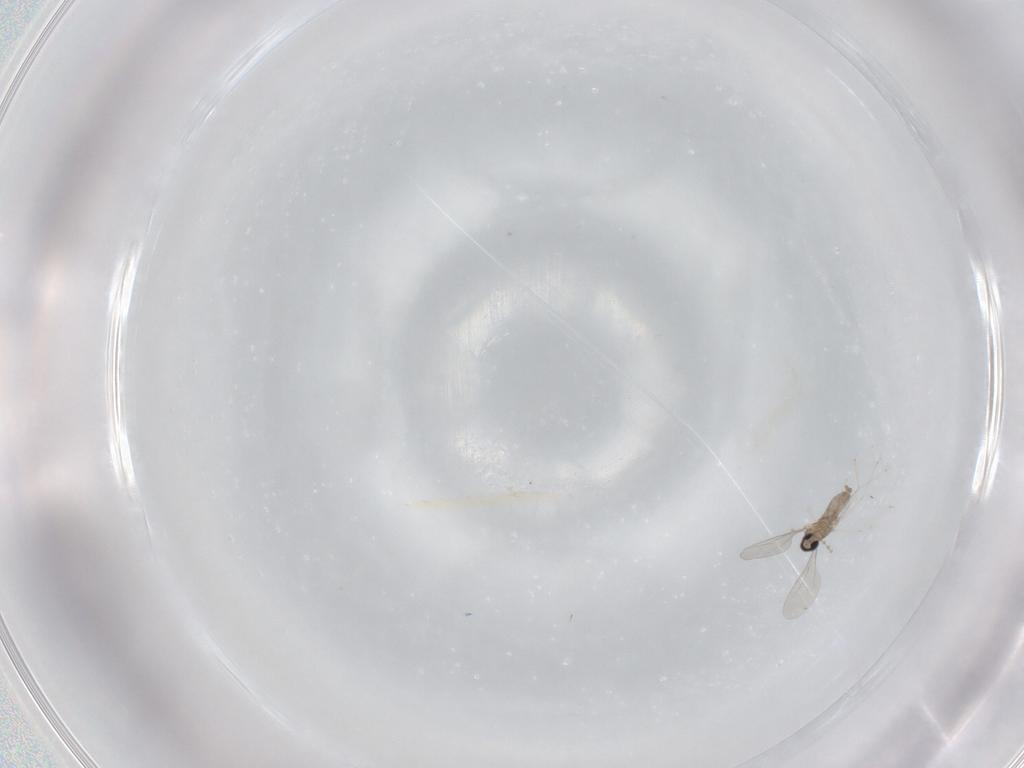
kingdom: Animalia
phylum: Arthropoda
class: Insecta
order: Diptera
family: Cecidomyiidae
